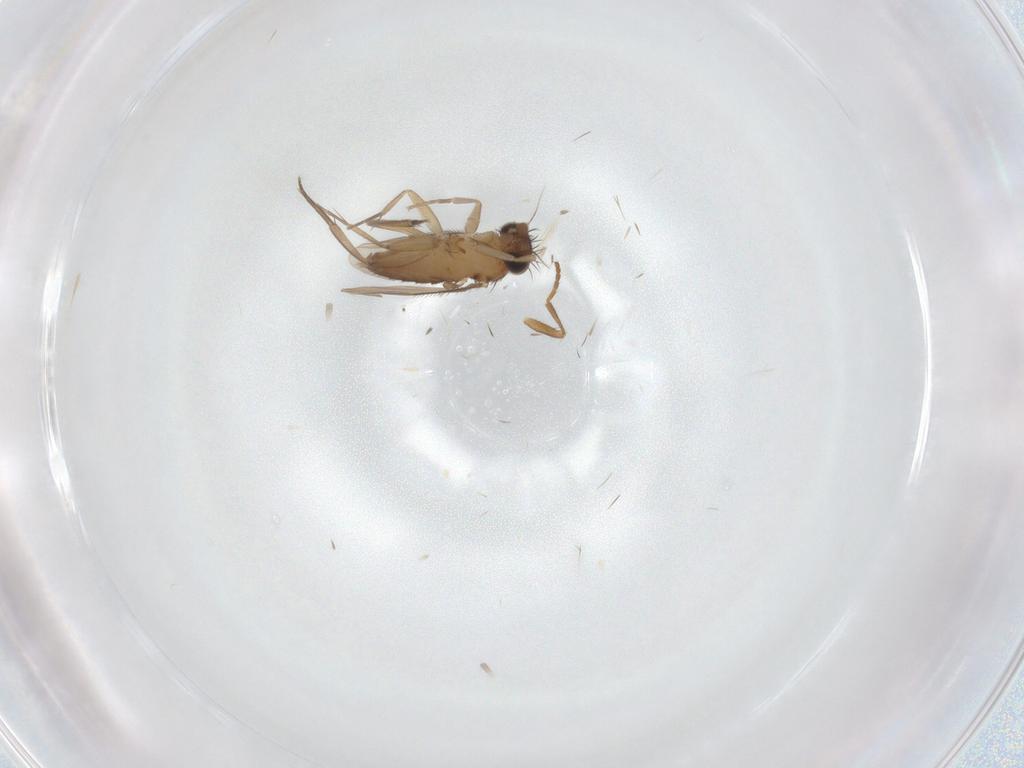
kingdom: Animalia
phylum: Arthropoda
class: Insecta
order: Diptera
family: Phoridae
